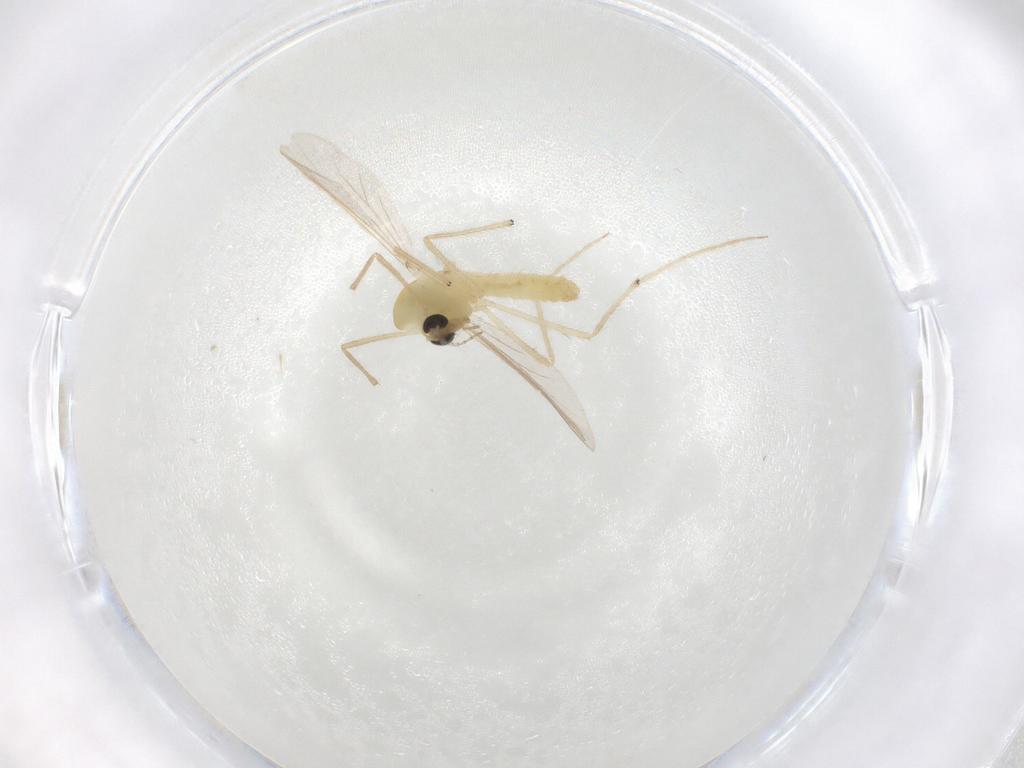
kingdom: Animalia
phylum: Arthropoda
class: Insecta
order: Diptera
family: Chironomidae
